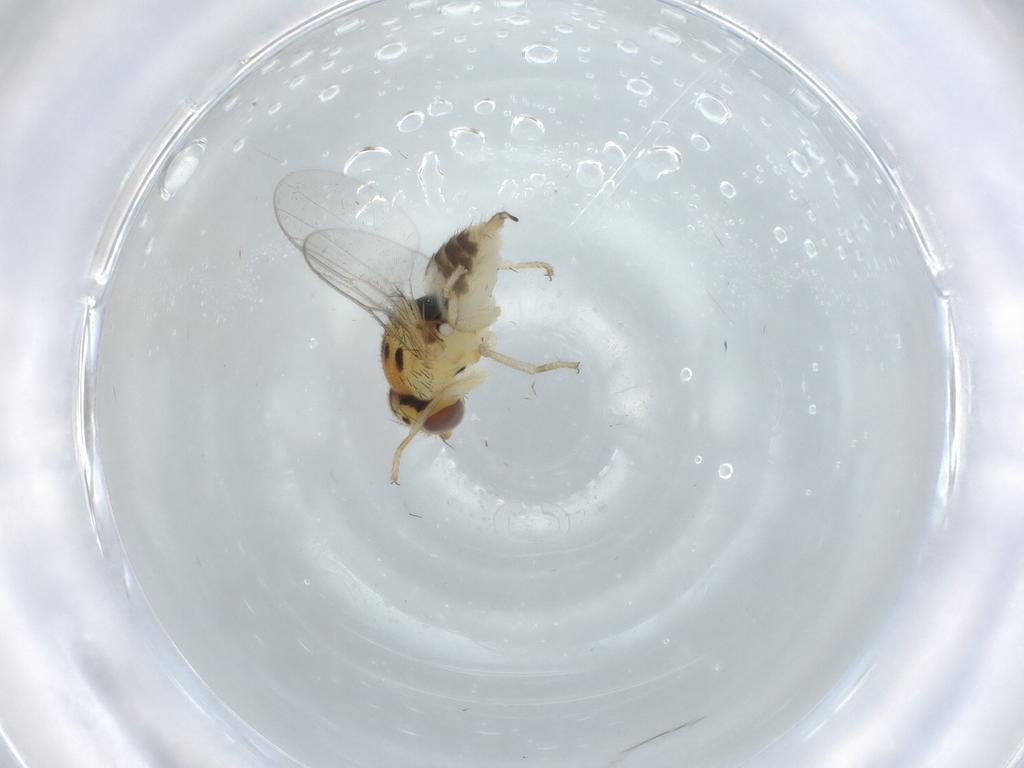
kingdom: Animalia
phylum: Arthropoda
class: Insecta
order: Diptera
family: Chloropidae
